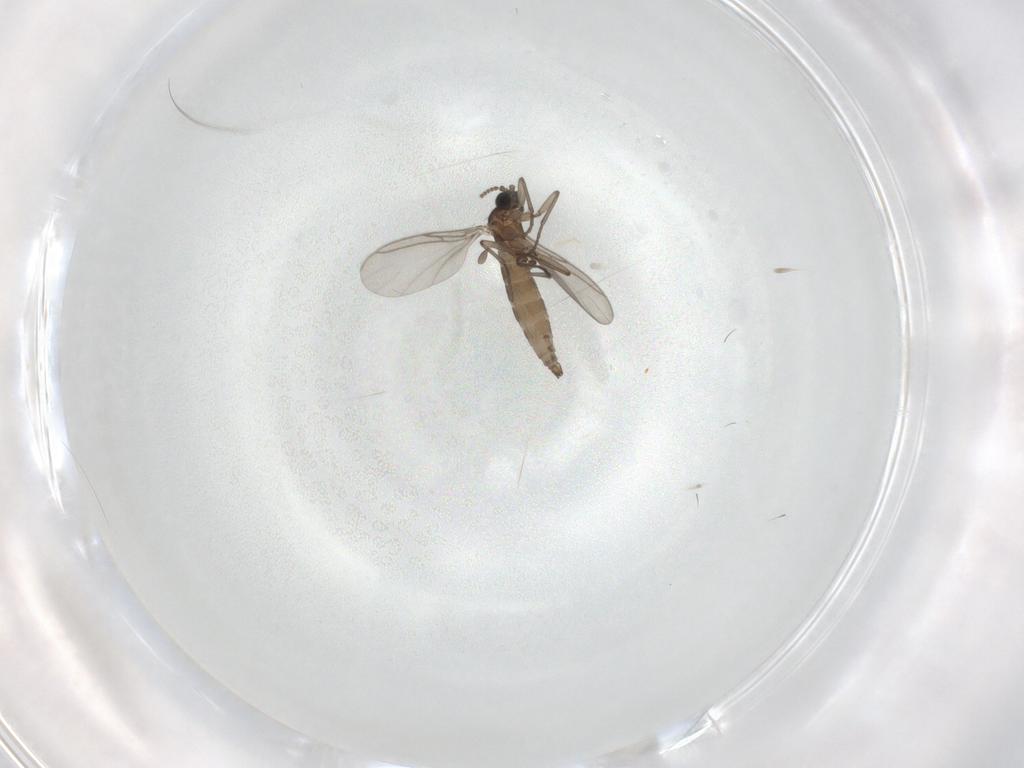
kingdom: Animalia
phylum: Arthropoda
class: Insecta
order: Diptera
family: Sciaridae
